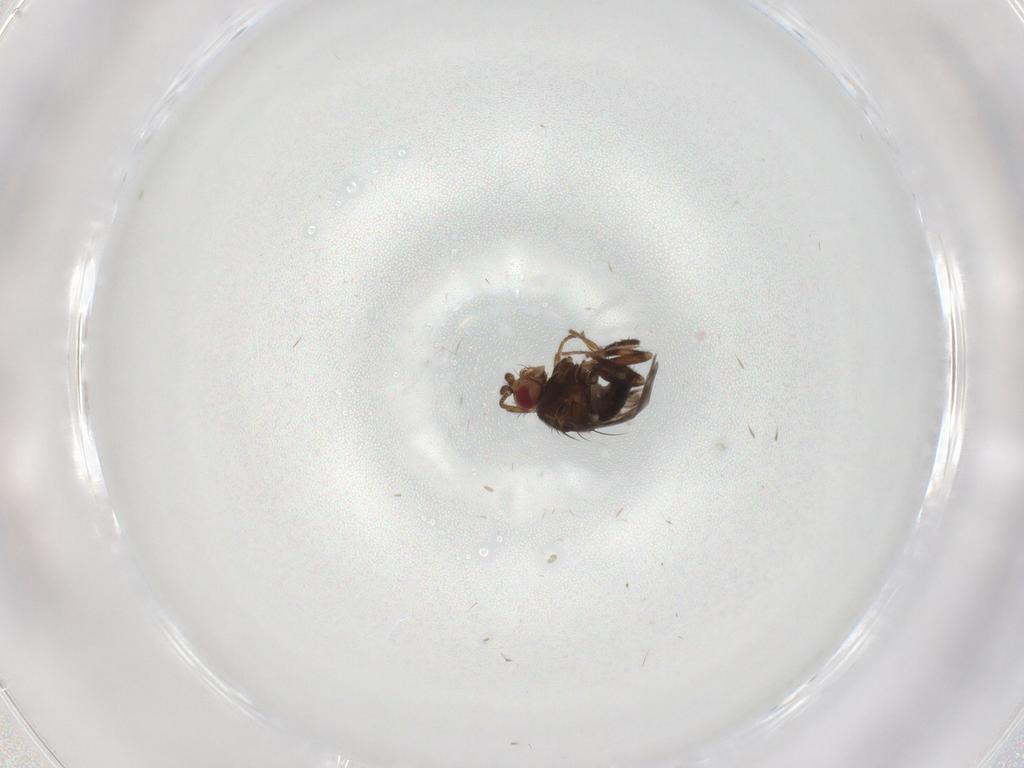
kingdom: Animalia
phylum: Arthropoda
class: Insecta
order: Diptera
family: Sphaeroceridae
